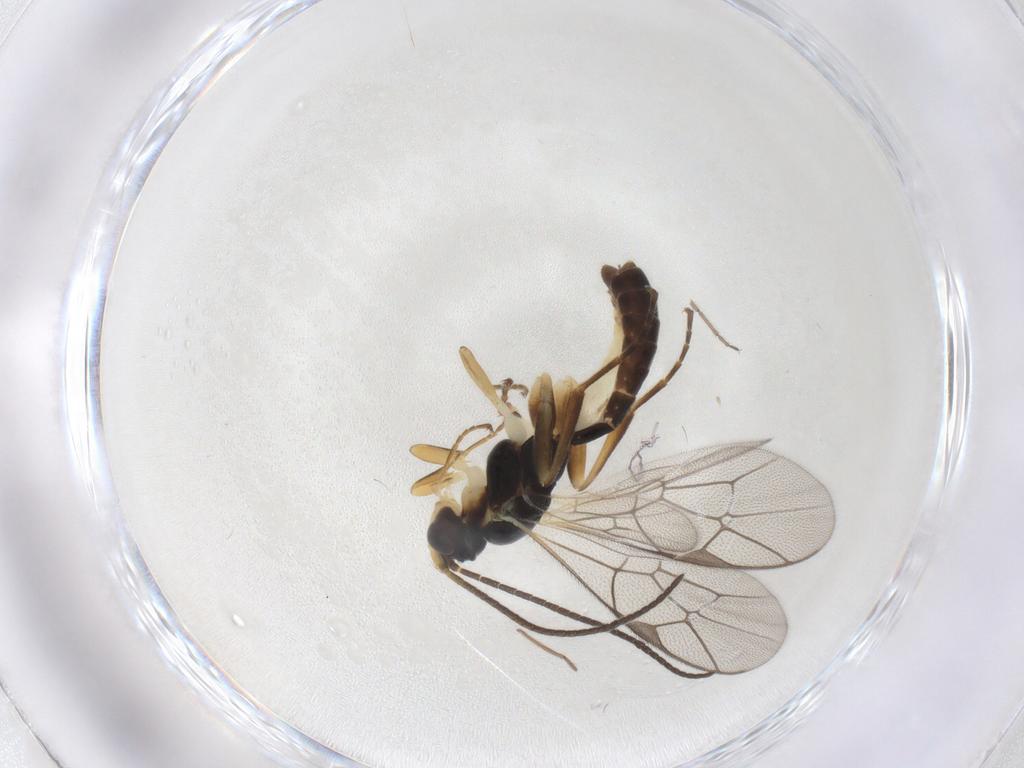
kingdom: Animalia
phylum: Arthropoda
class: Insecta
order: Hymenoptera
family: Ichneumonidae
